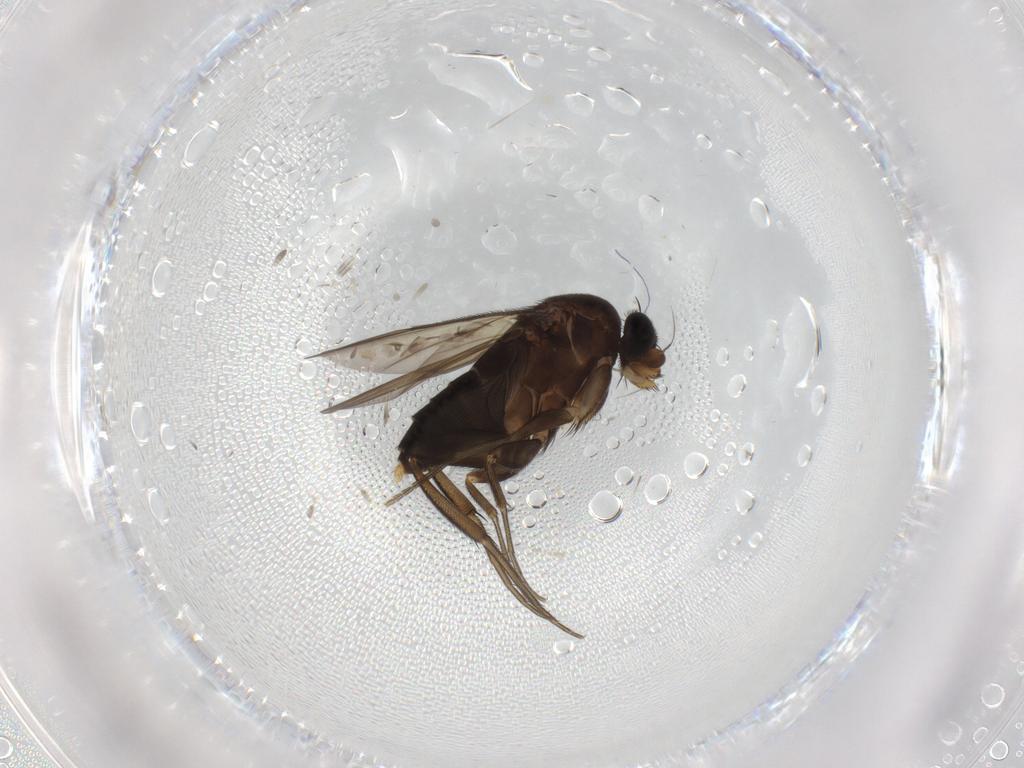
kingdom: Animalia
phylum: Arthropoda
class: Insecta
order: Diptera
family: Phoridae
